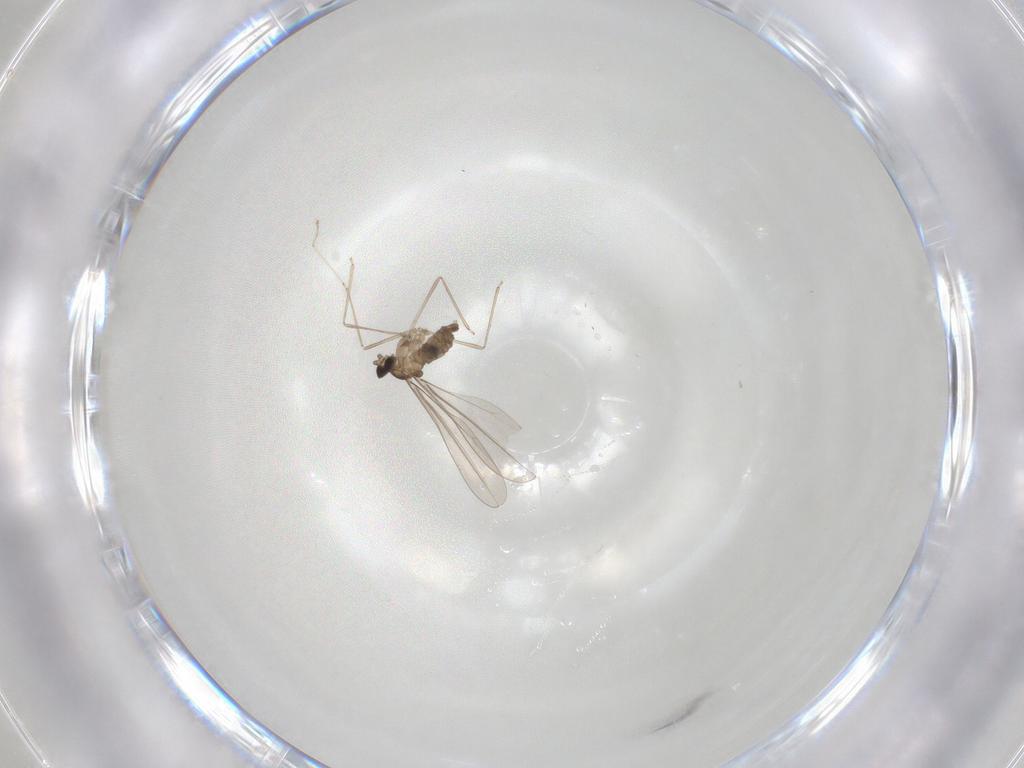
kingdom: Animalia
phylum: Arthropoda
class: Insecta
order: Diptera
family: Cecidomyiidae
